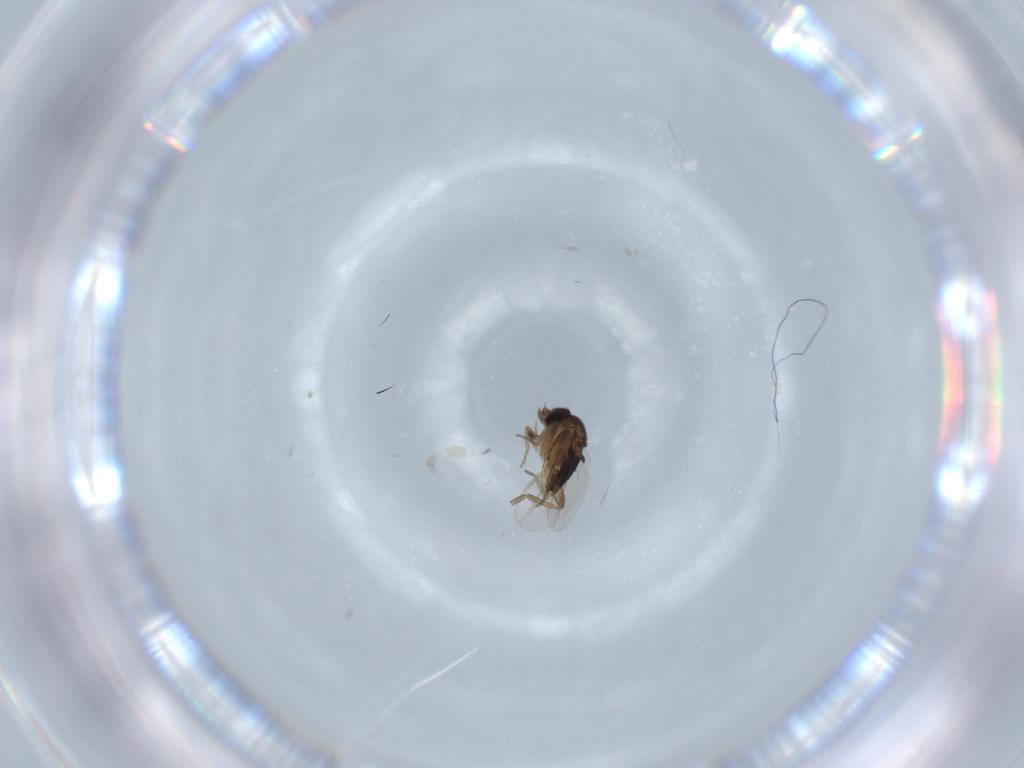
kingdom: Animalia
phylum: Arthropoda
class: Insecta
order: Diptera
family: Phoridae
